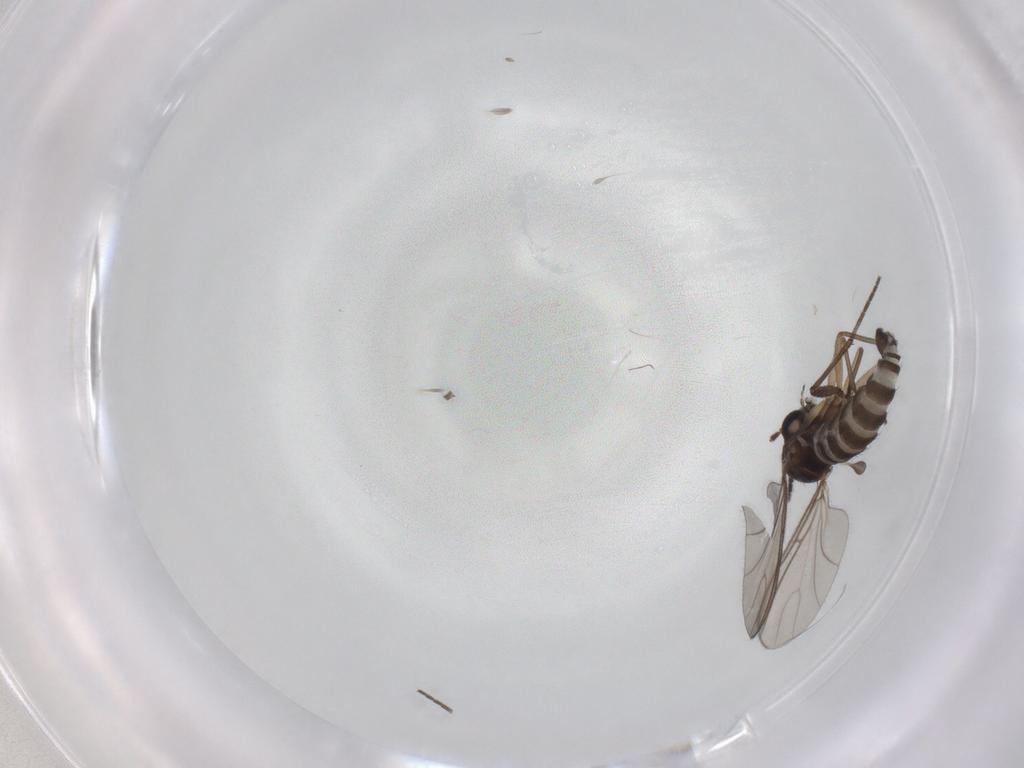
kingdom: Animalia
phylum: Arthropoda
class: Insecta
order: Diptera
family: Sciaridae
